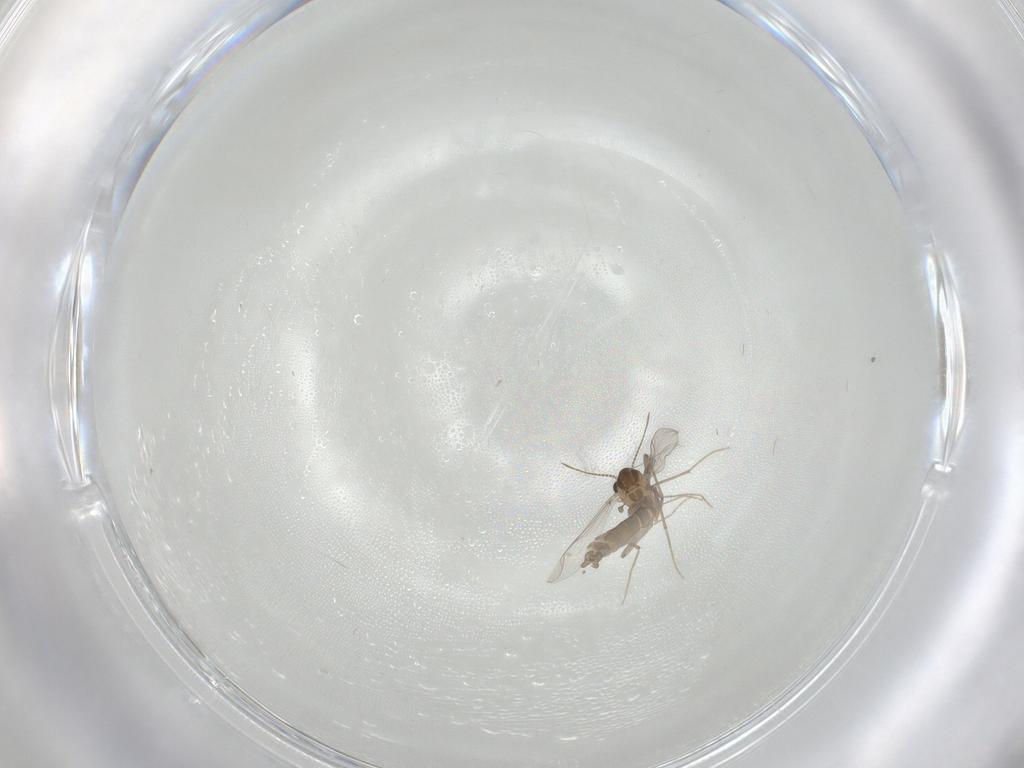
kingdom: Animalia
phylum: Arthropoda
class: Insecta
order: Diptera
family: Chironomidae
